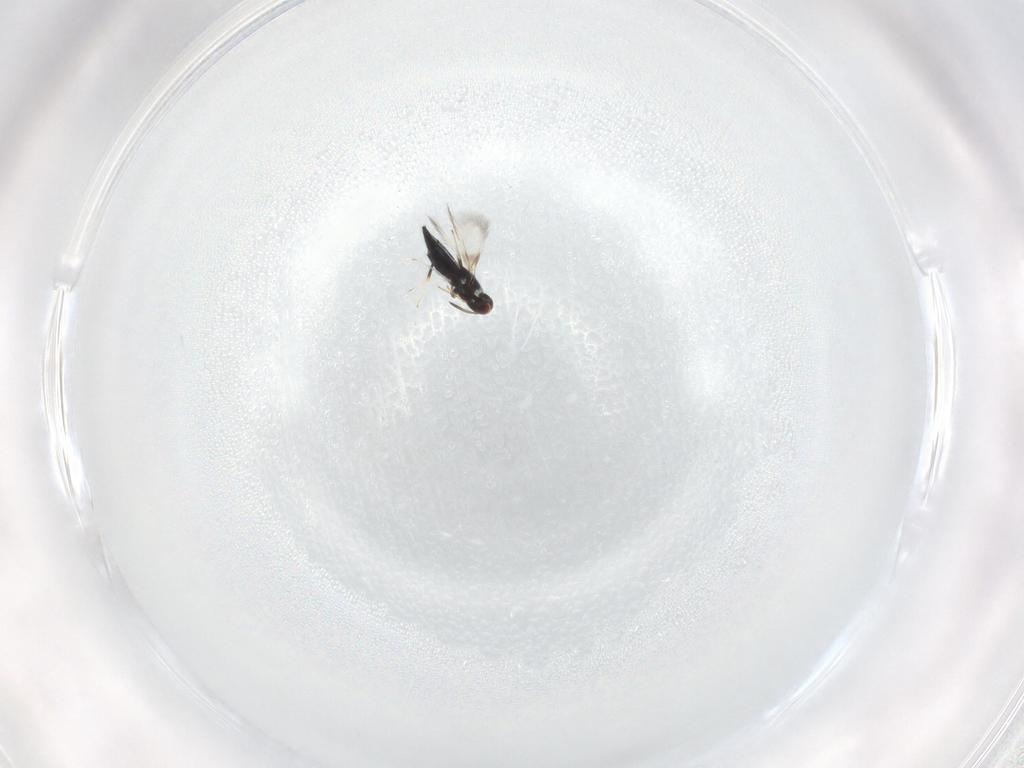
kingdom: Animalia
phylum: Arthropoda
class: Insecta
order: Hymenoptera
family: Signiphoridae
